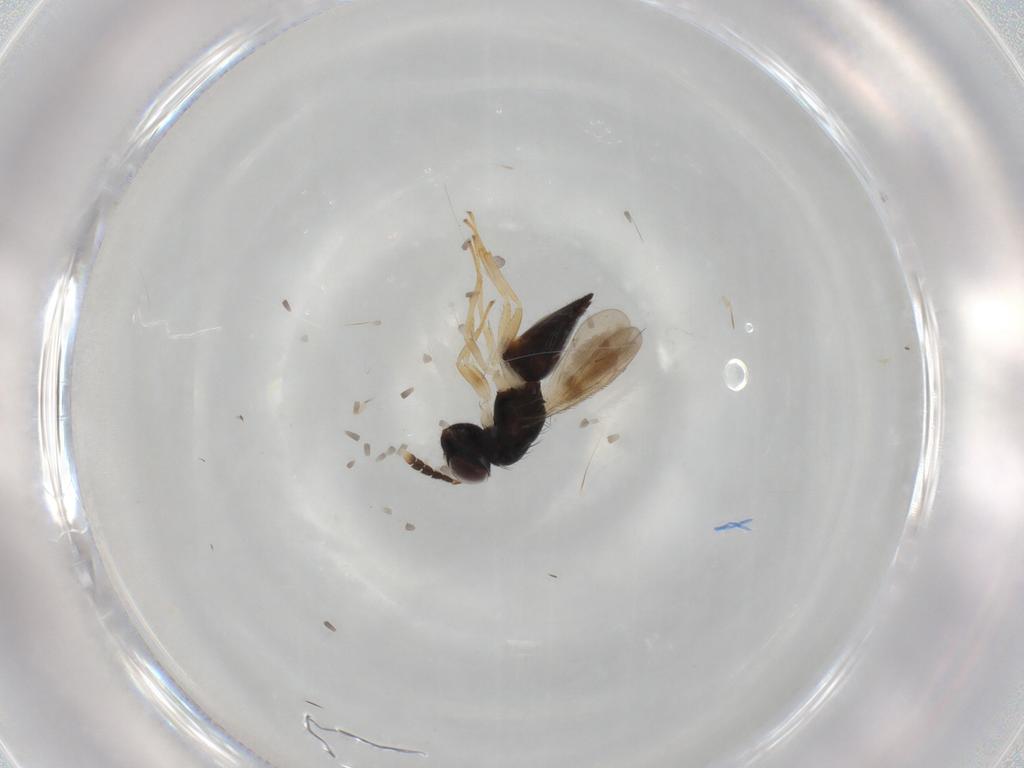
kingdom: Animalia
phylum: Arthropoda
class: Insecta
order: Hymenoptera
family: Eulophidae
